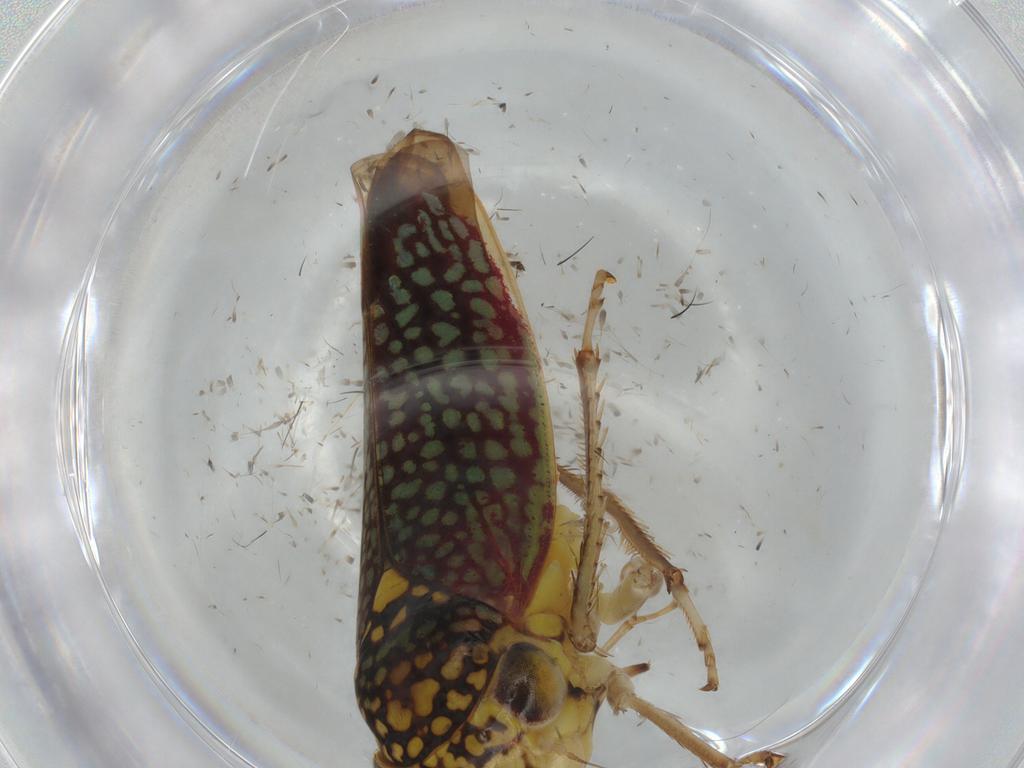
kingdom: Animalia
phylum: Arthropoda
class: Insecta
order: Hemiptera
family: Cicadellidae
